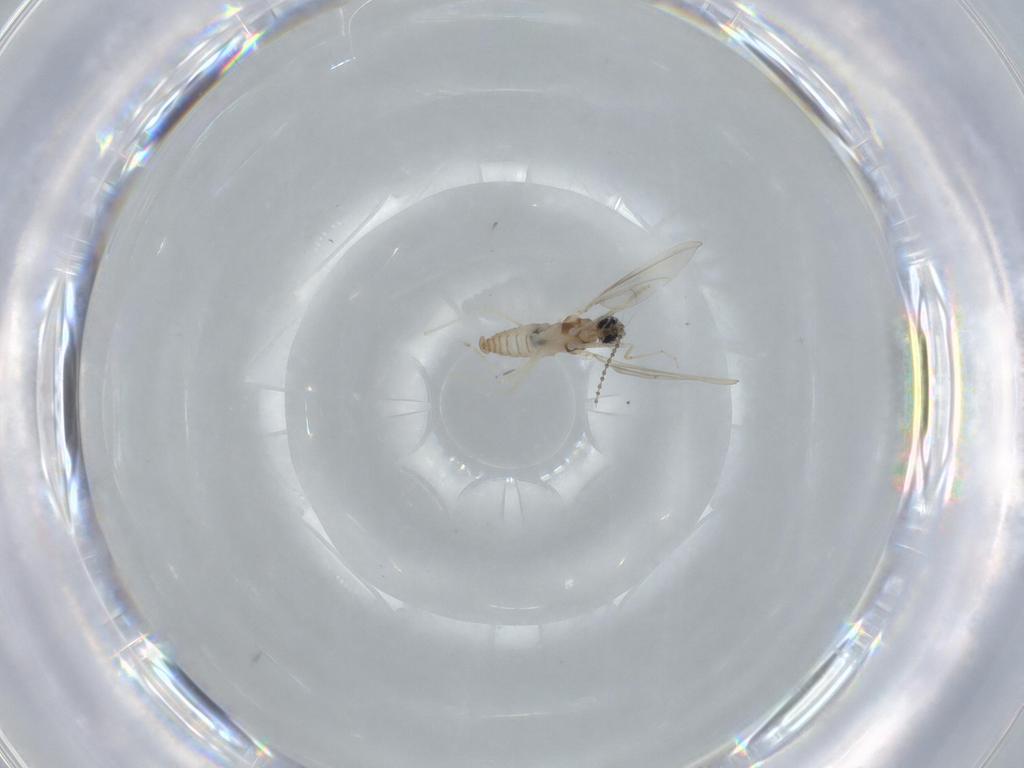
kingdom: Animalia
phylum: Arthropoda
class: Insecta
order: Diptera
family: Cecidomyiidae
